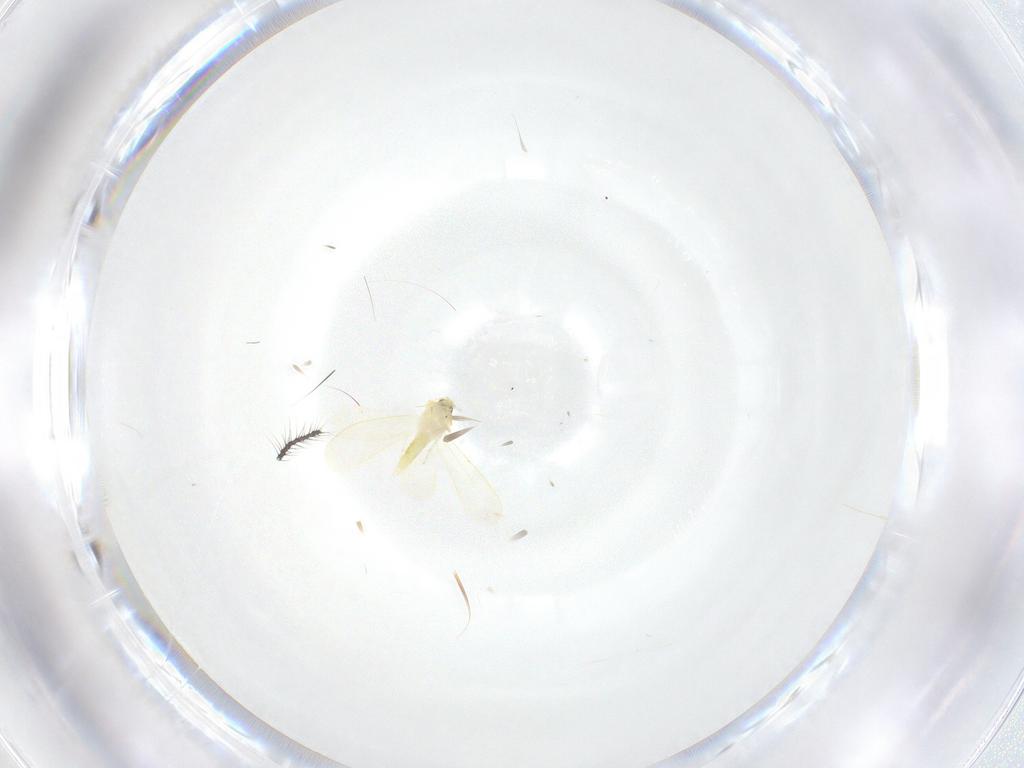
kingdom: Animalia
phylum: Arthropoda
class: Insecta
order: Hemiptera
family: Aleyrodidae
